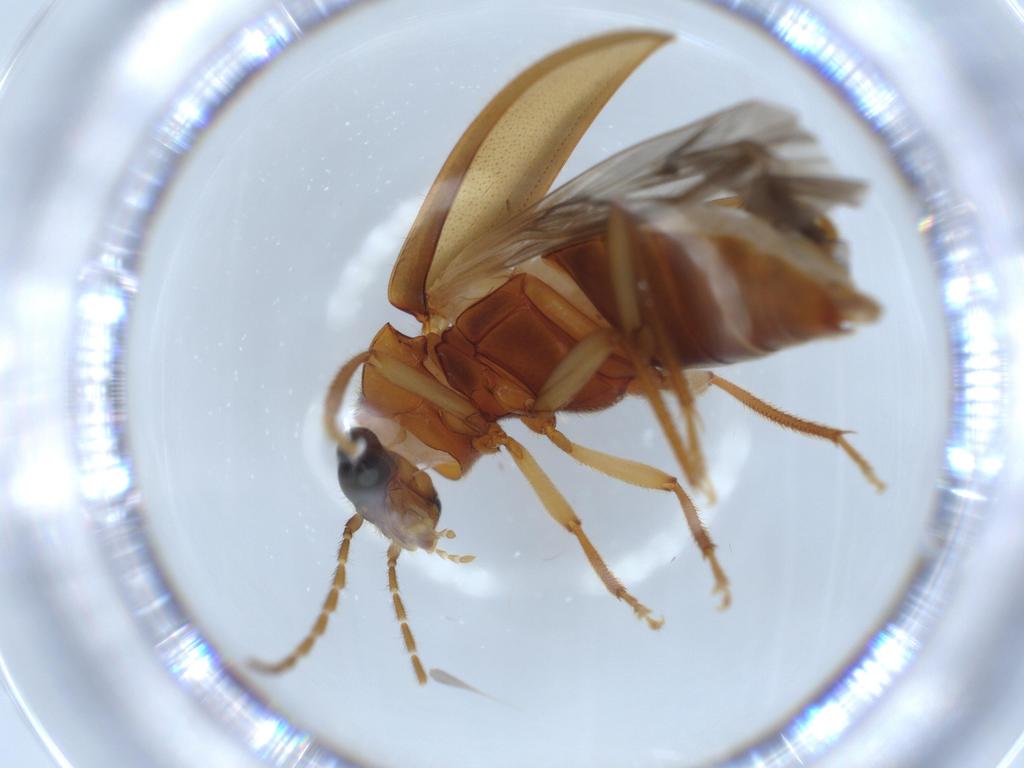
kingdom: Animalia
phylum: Arthropoda
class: Insecta
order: Coleoptera
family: Ptilodactylidae
